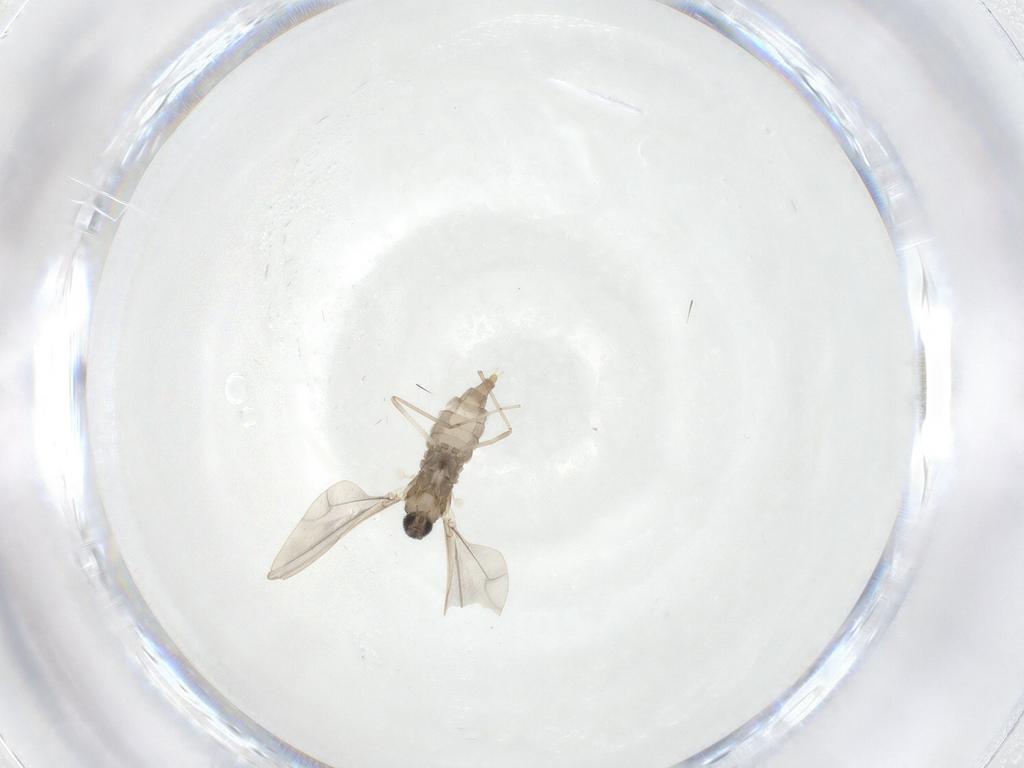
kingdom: Animalia
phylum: Arthropoda
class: Insecta
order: Diptera
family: Cecidomyiidae
